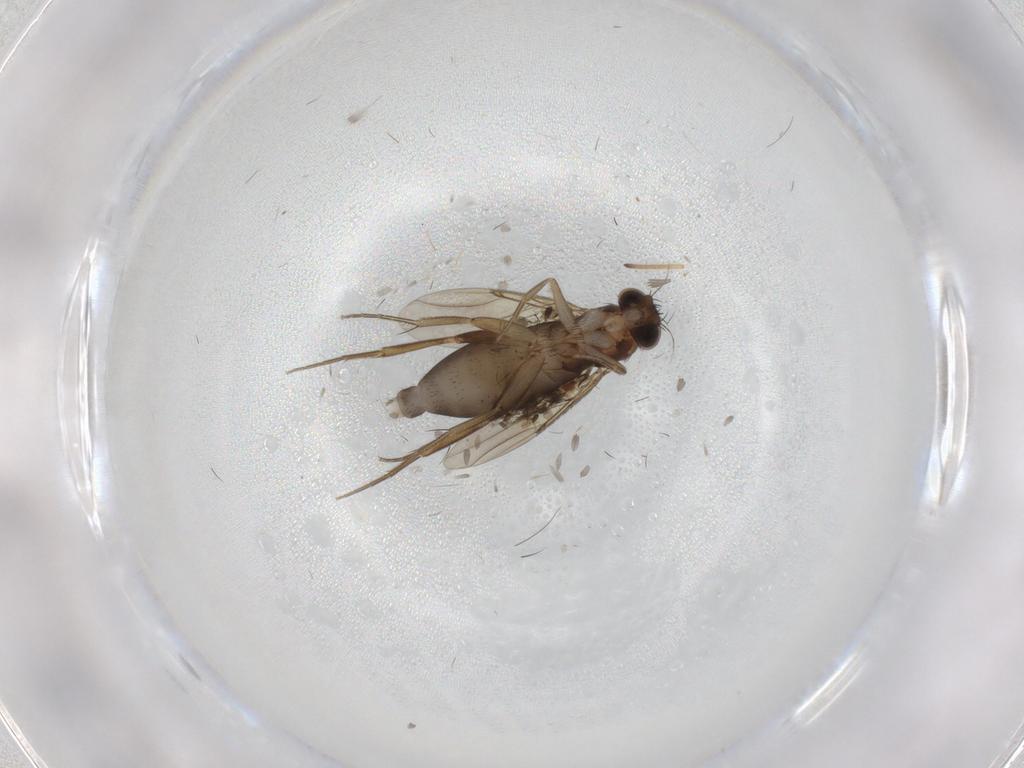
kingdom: Animalia
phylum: Arthropoda
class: Insecta
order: Diptera
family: Phoridae
